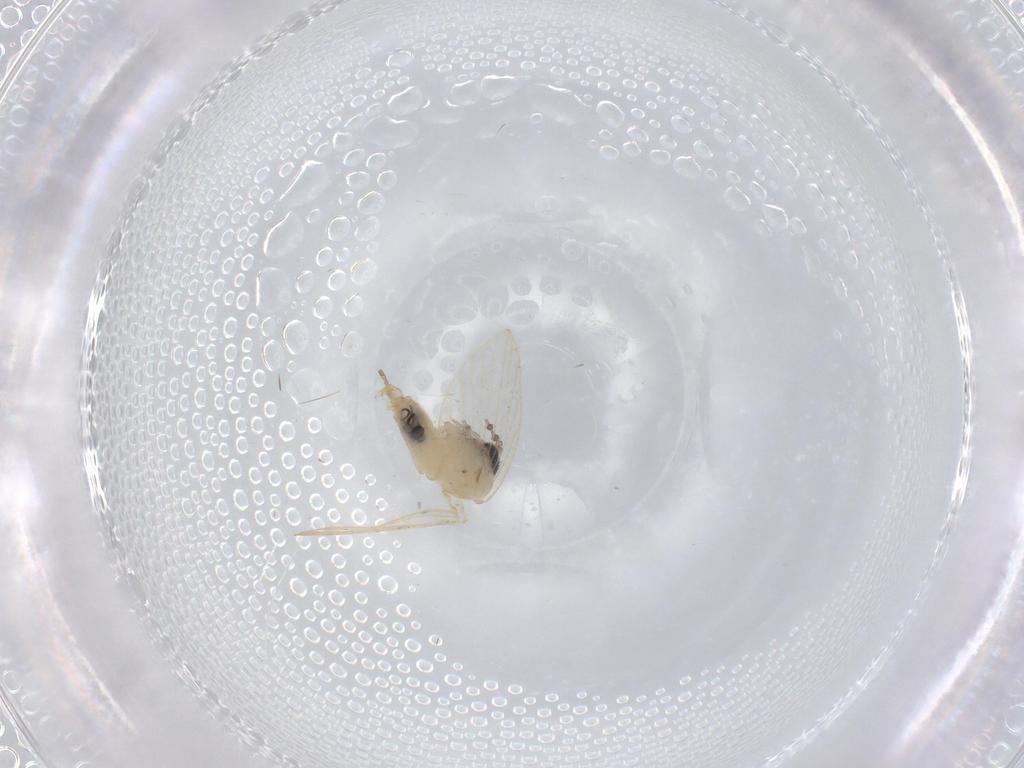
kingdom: Animalia
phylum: Arthropoda
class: Insecta
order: Diptera
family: Psychodidae
